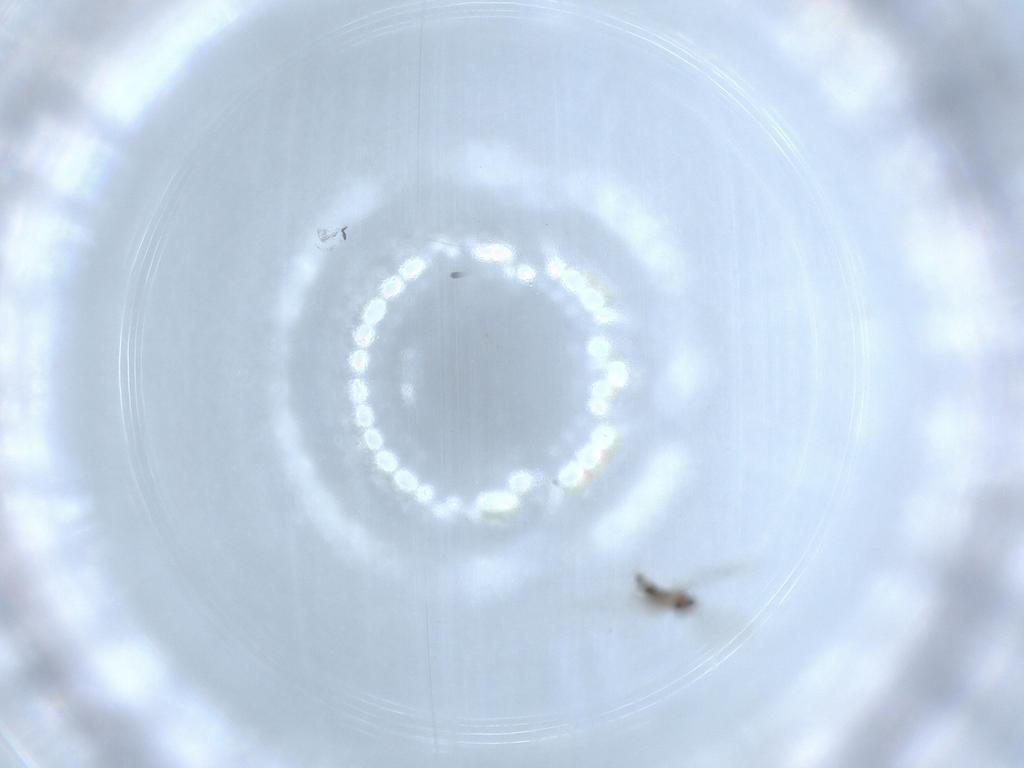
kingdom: Animalia
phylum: Arthropoda
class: Insecta
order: Diptera
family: Cecidomyiidae
